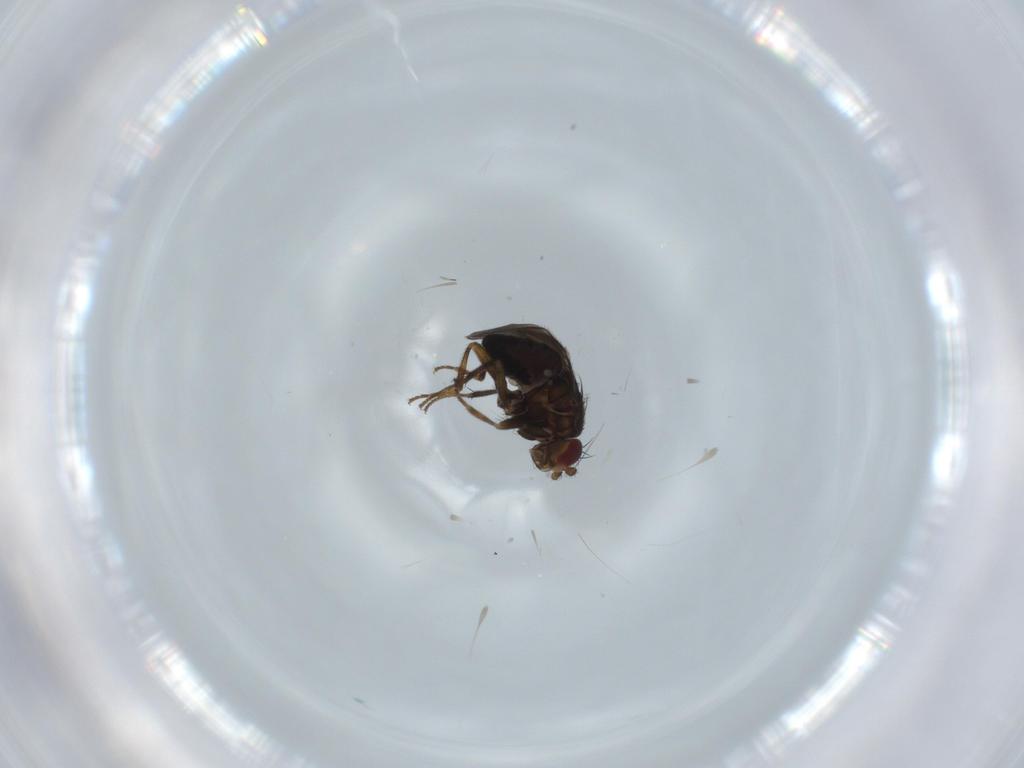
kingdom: Animalia
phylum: Arthropoda
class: Insecta
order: Diptera
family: Sphaeroceridae
